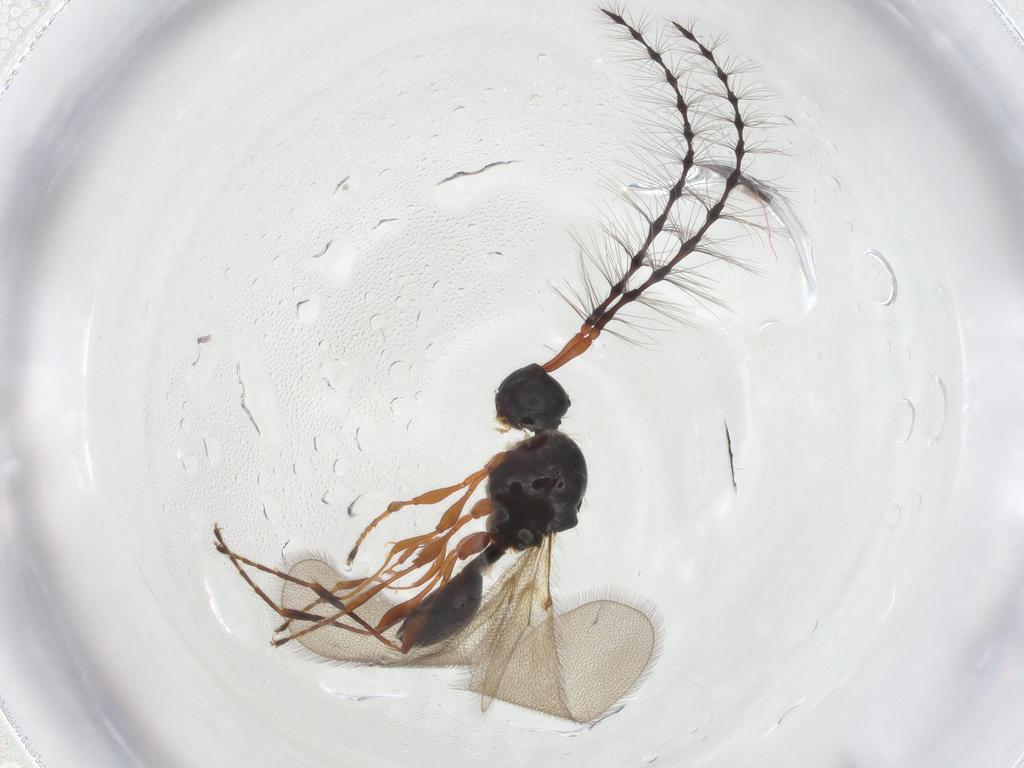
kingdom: Animalia
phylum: Arthropoda
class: Insecta
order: Hymenoptera
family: Diapriidae
